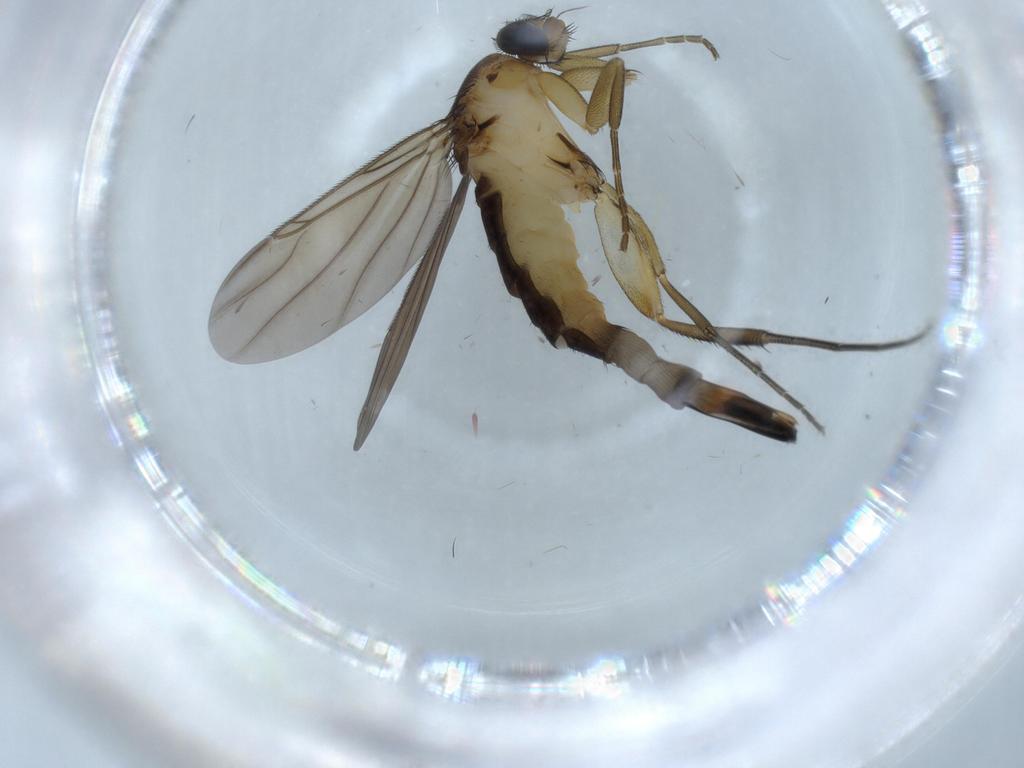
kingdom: Animalia
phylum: Arthropoda
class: Insecta
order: Diptera
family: Phoridae
